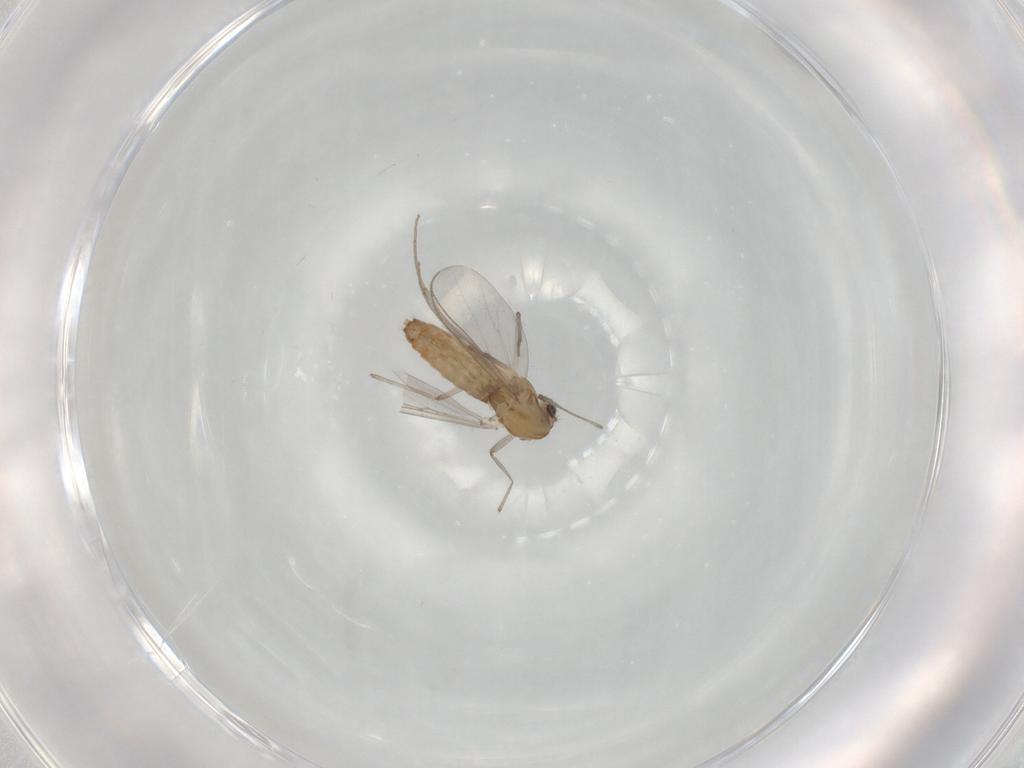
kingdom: Animalia
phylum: Arthropoda
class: Insecta
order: Diptera
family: Chironomidae
